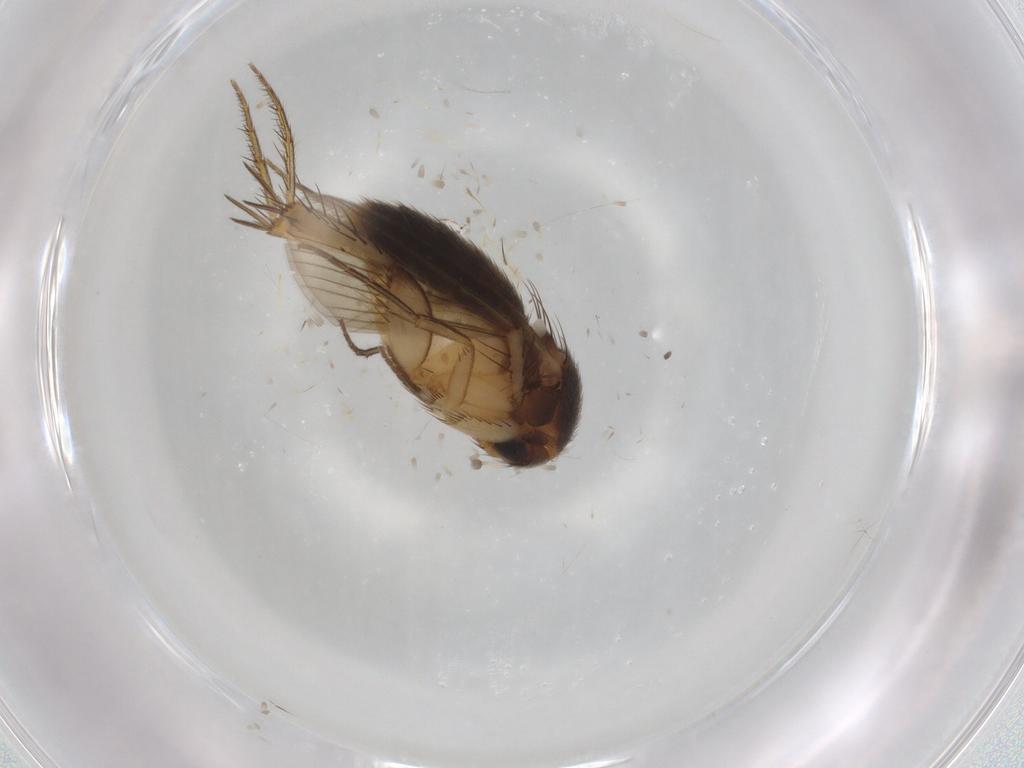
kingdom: Animalia
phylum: Arthropoda
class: Insecta
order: Diptera
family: Mycetophilidae
